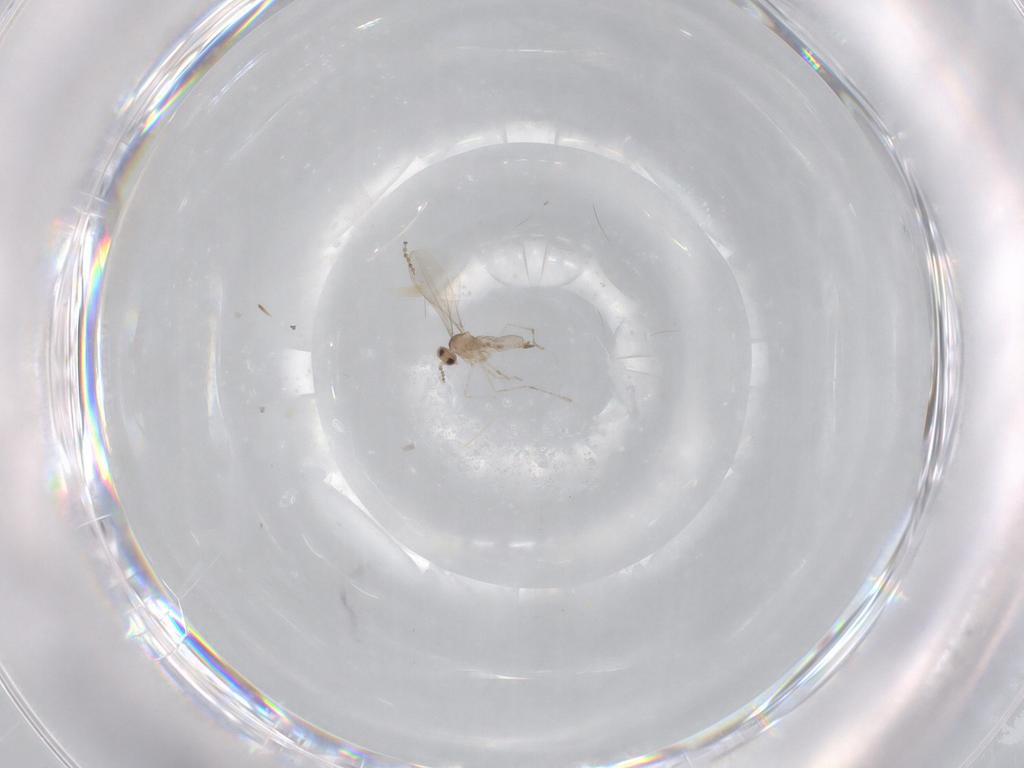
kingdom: Animalia
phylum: Arthropoda
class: Insecta
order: Diptera
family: Cecidomyiidae
